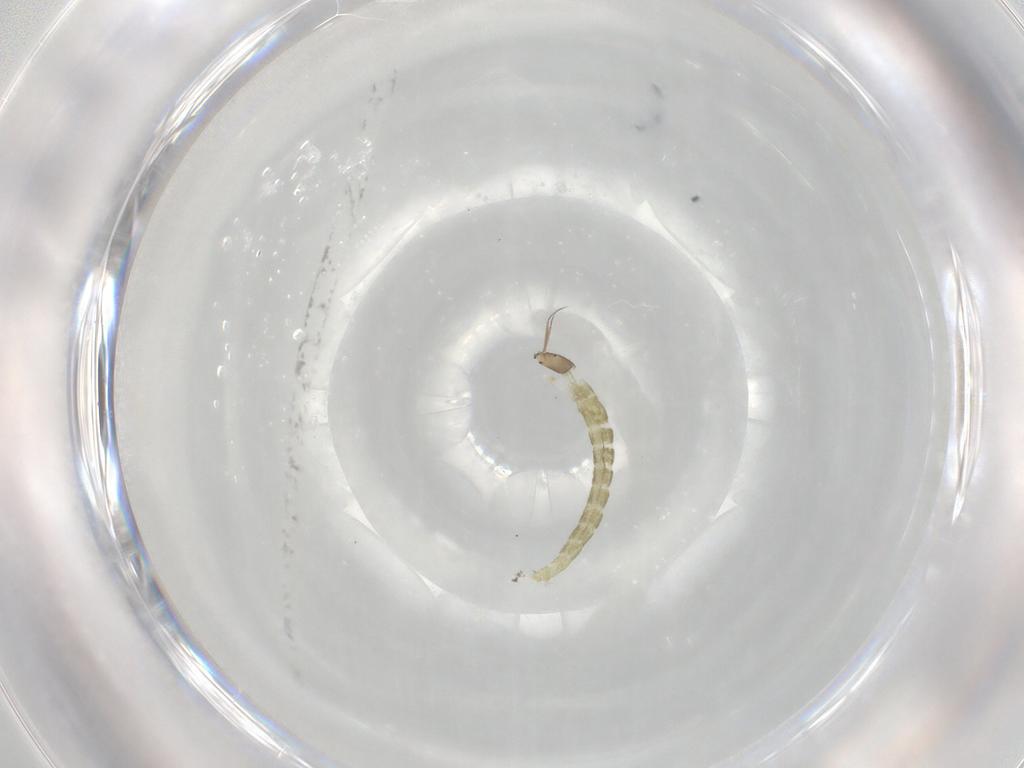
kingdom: Animalia
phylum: Arthropoda
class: Insecta
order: Diptera
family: Chironomidae
